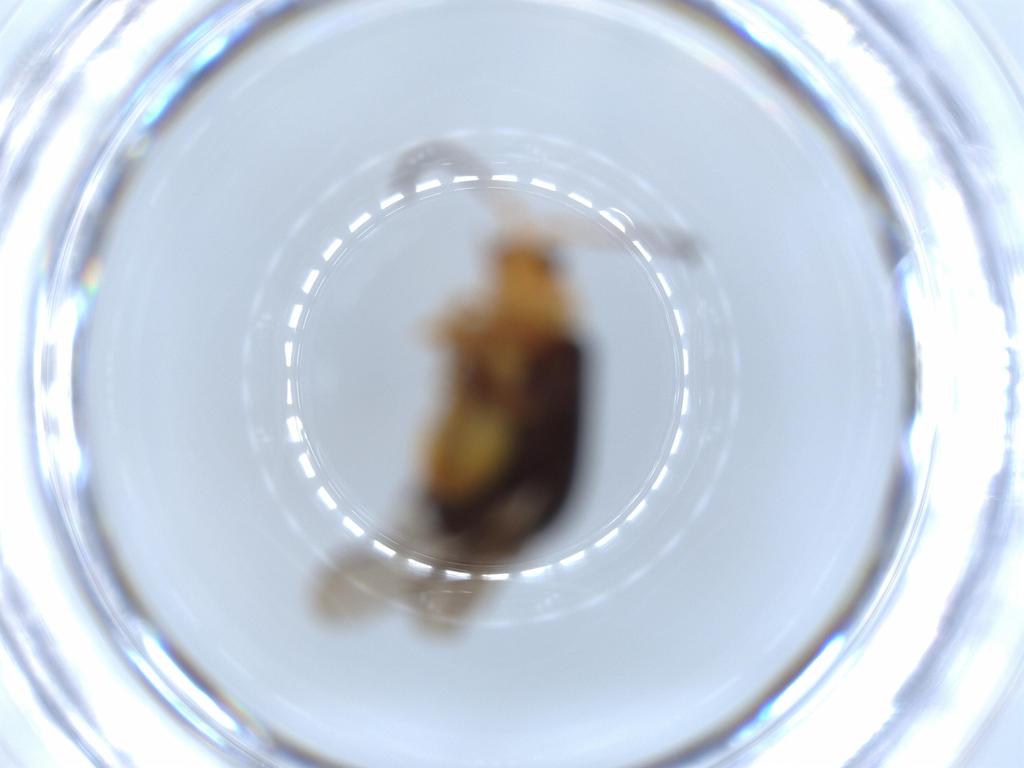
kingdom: Animalia
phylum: Arthropoda
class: Insecta
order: Coleoptera
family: Chrysomelidae
